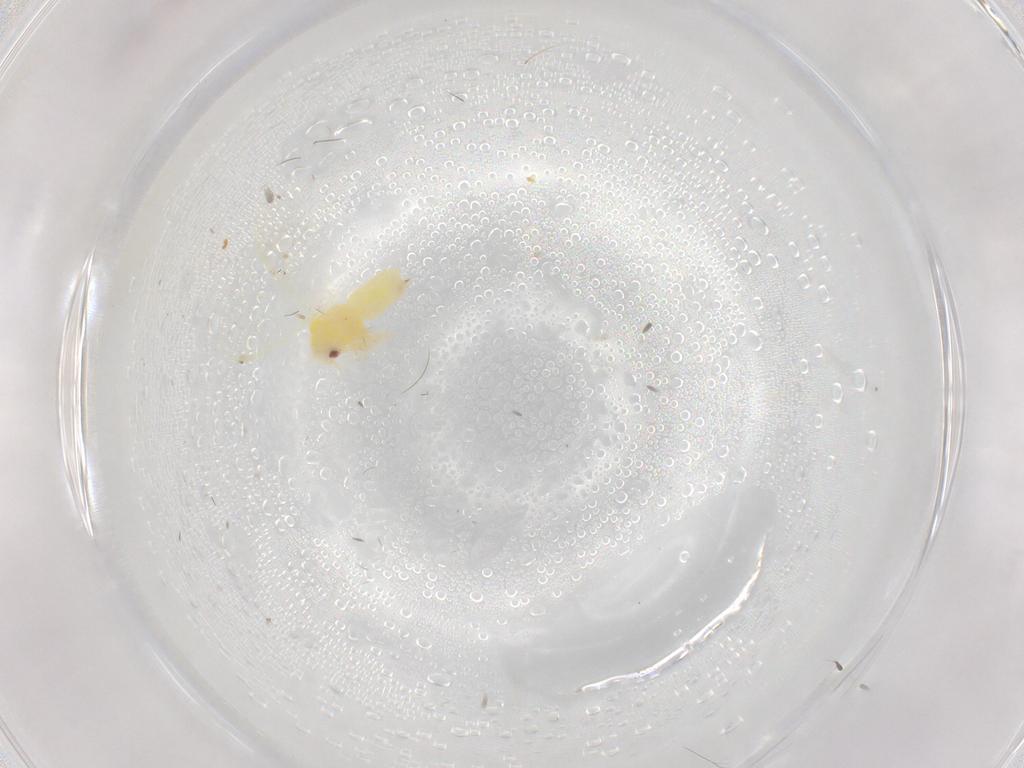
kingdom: Animalia
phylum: Arthropoda
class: Insecta
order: Hemiptera
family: Aleyrodidae
